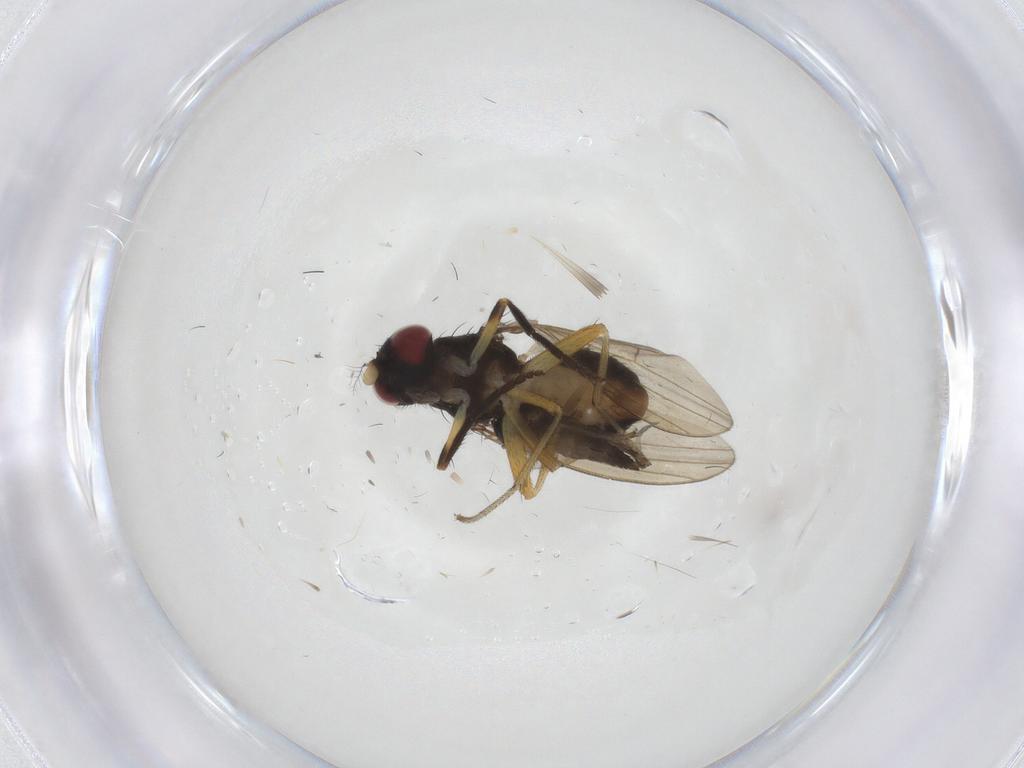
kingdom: Animalia
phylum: Arthropoda
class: Insecta
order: Diptera
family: Lauxaniidae
